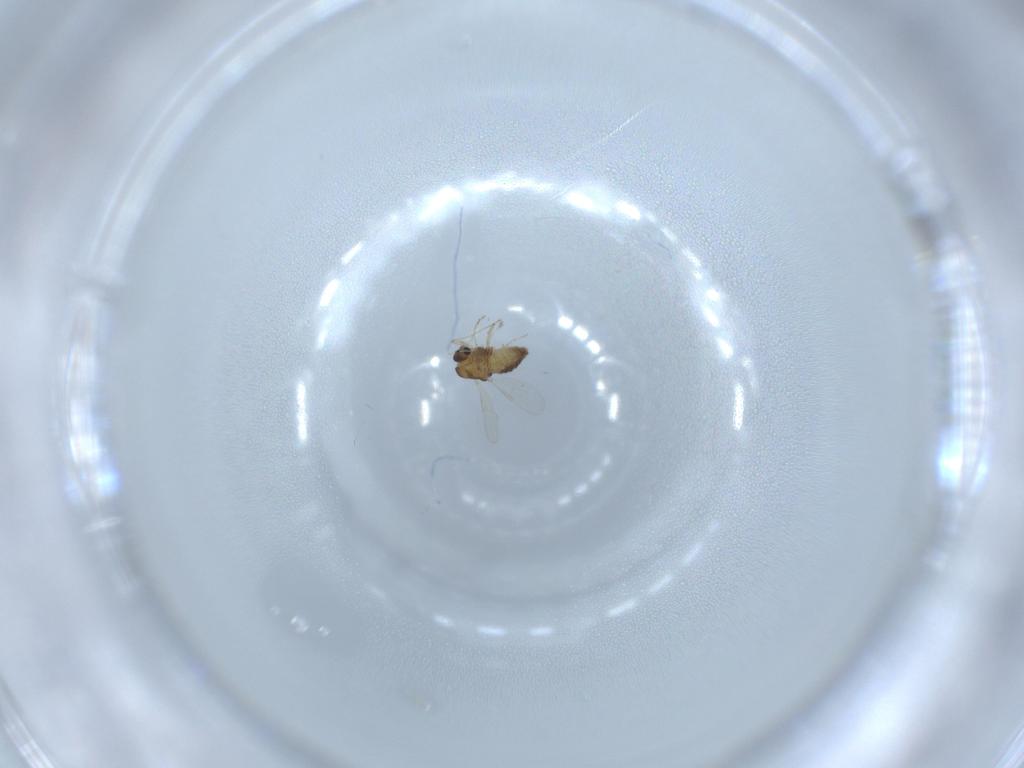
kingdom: Animalia
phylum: Arthropoda
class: Insecta
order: Diptera
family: Chironomidae
